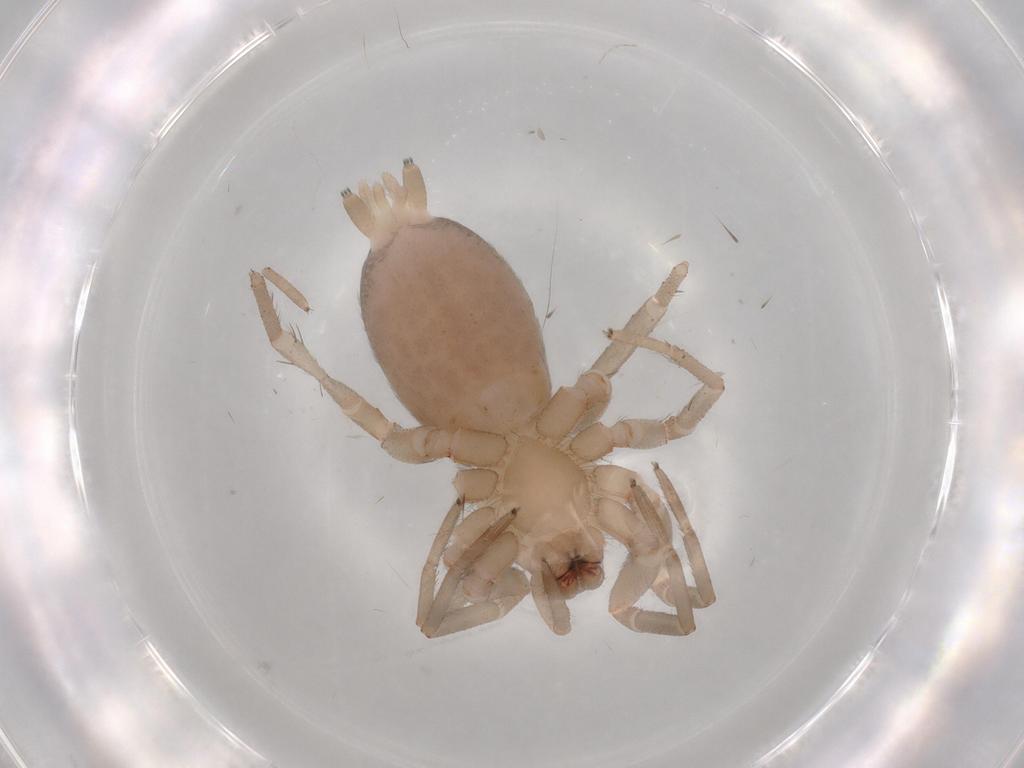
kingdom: Animalia
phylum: Arthropoda
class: Arachnida
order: Araneae
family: Gnaphosidae
